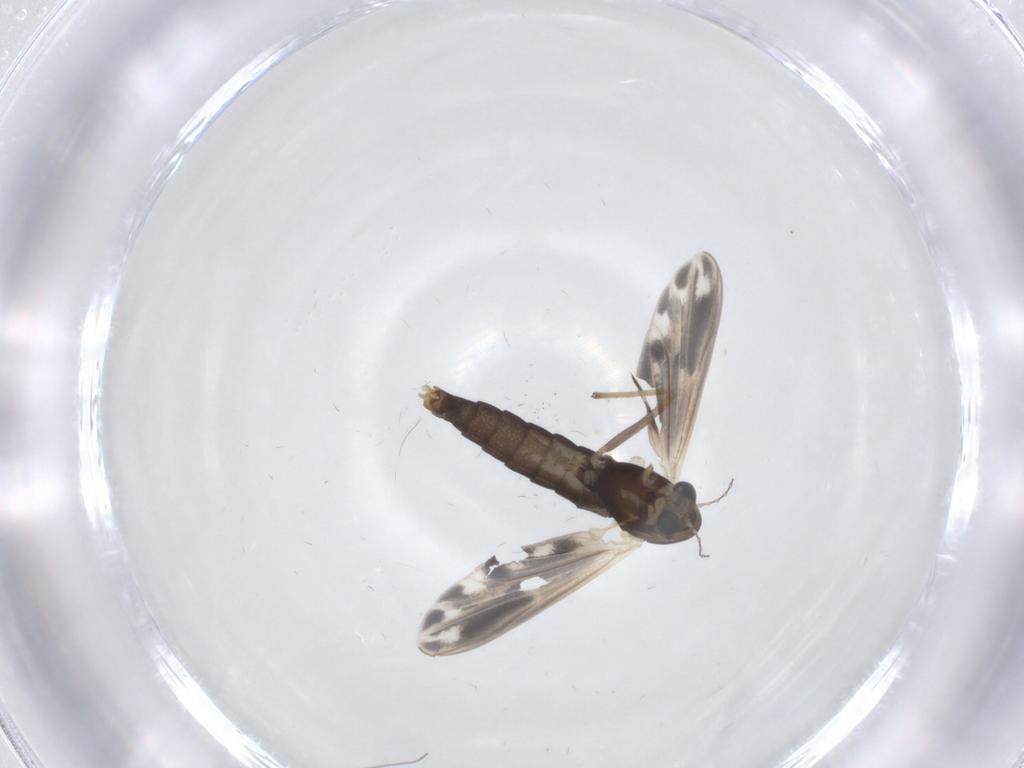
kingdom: Animalia
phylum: Arthropoda
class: Insecta
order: Diptera
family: Chironomidae
